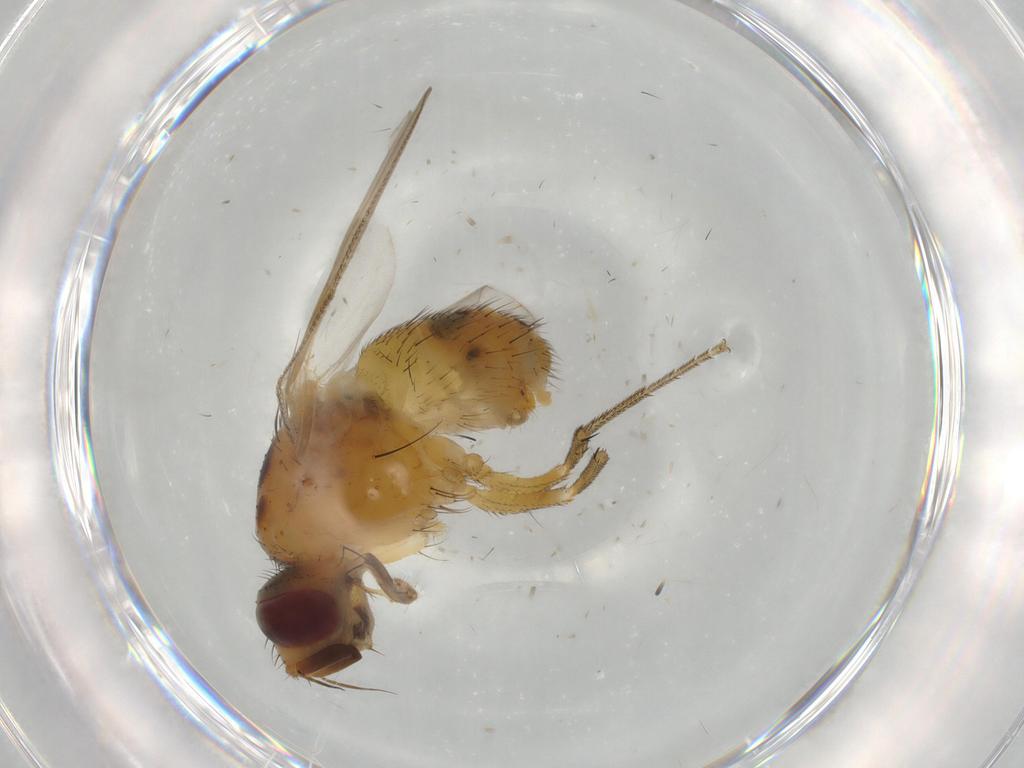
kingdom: Animalia
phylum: Arthropoda
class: Insecta
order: Diptera
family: Muscidae
